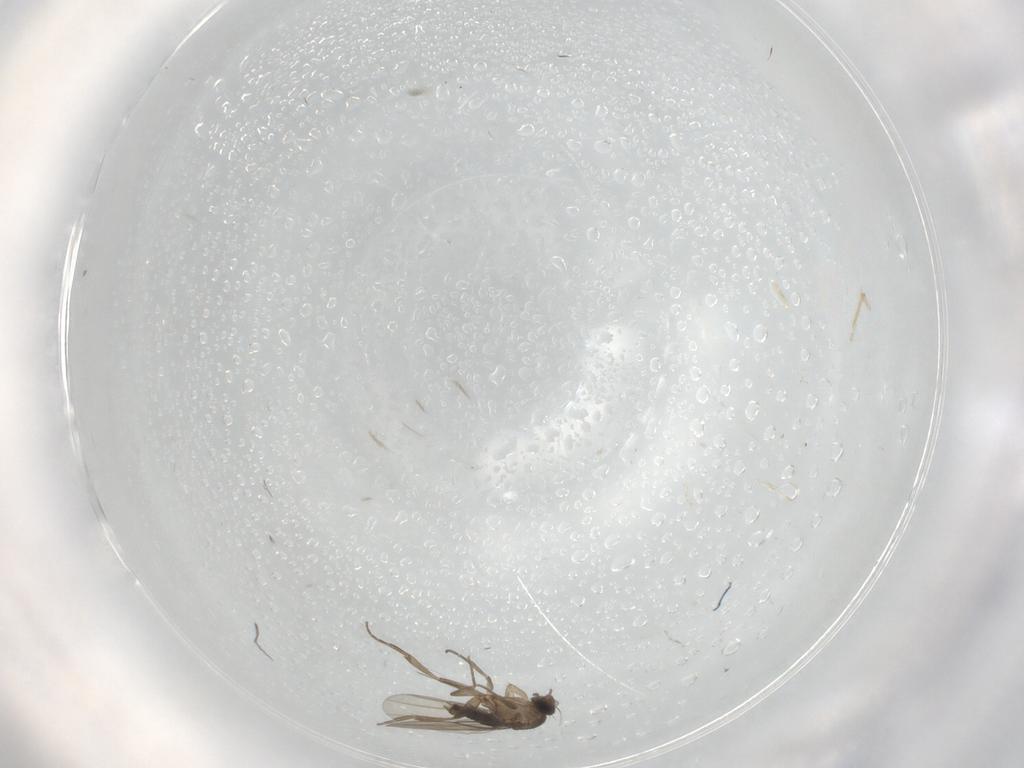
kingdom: Animalia
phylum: Arthropoda
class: Insecta
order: Diptera
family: Phoridae
